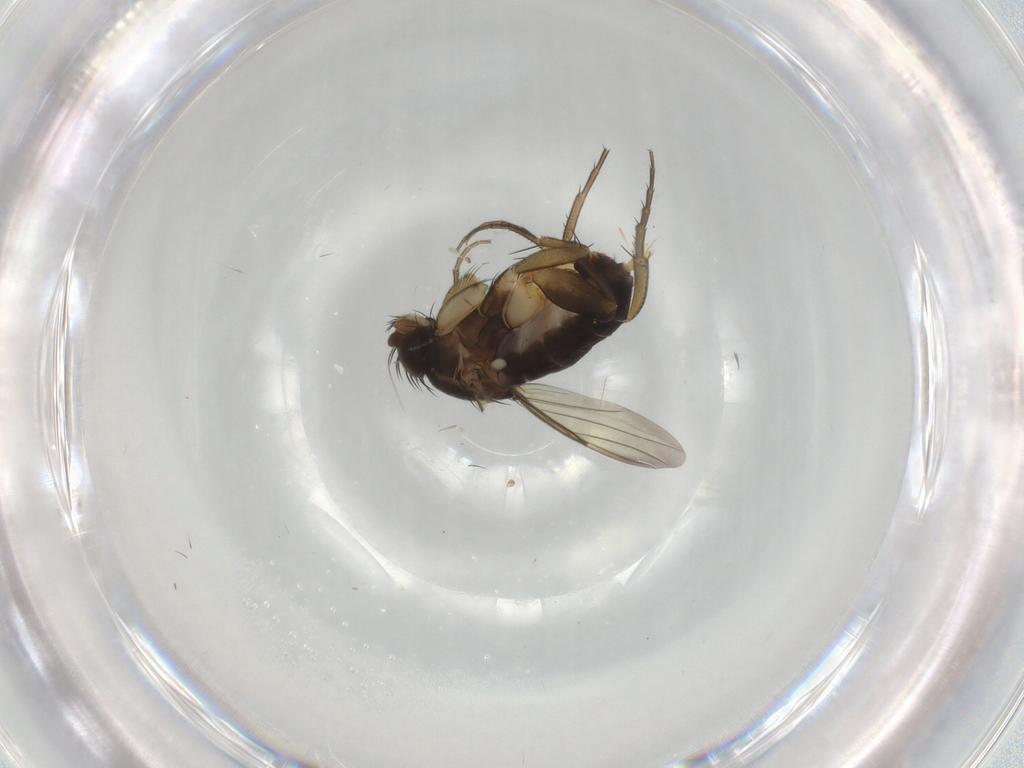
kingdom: Animalia
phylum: Arthropoda
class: Insecta
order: Diptera
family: Phoridae
